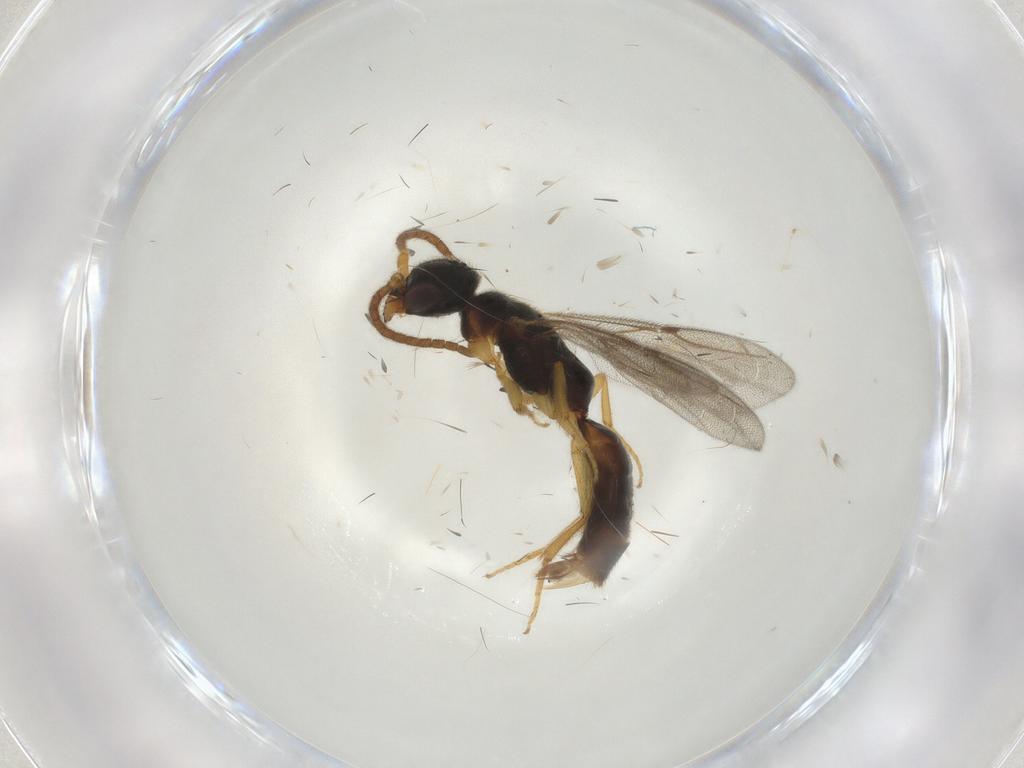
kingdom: Animalia
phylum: Arthropoda
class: Insecta
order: Hymenoptera
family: Bethylidae
